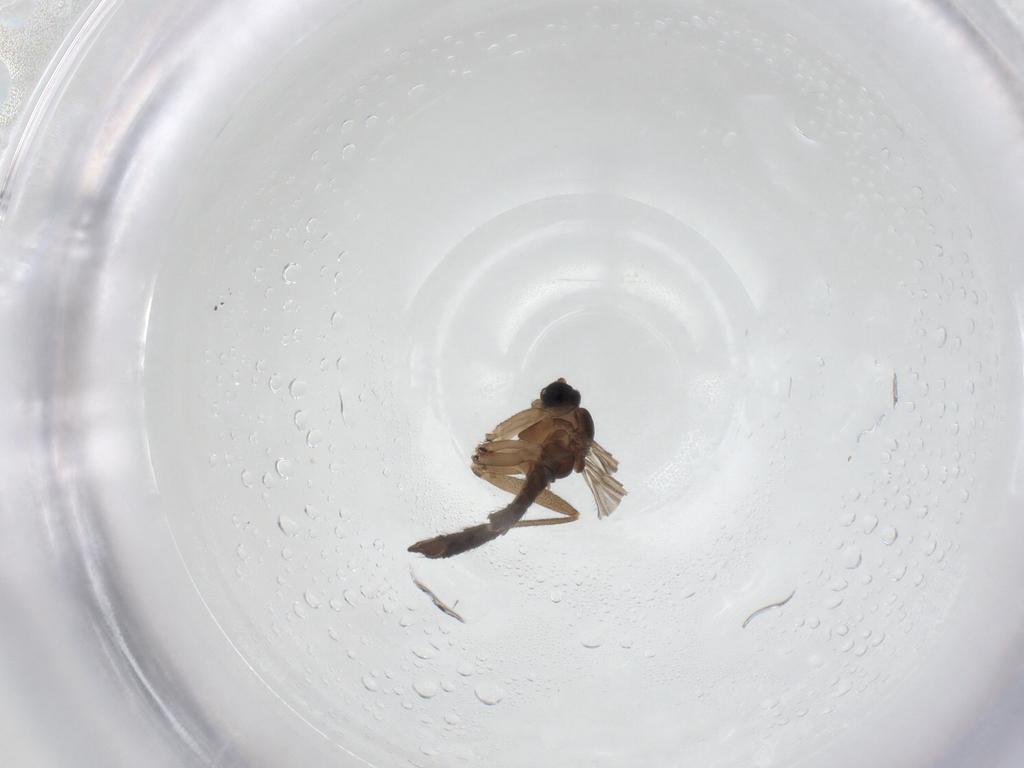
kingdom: Animalia
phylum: Arthropoda
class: Insecta
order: Diptera
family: Sciaridae
